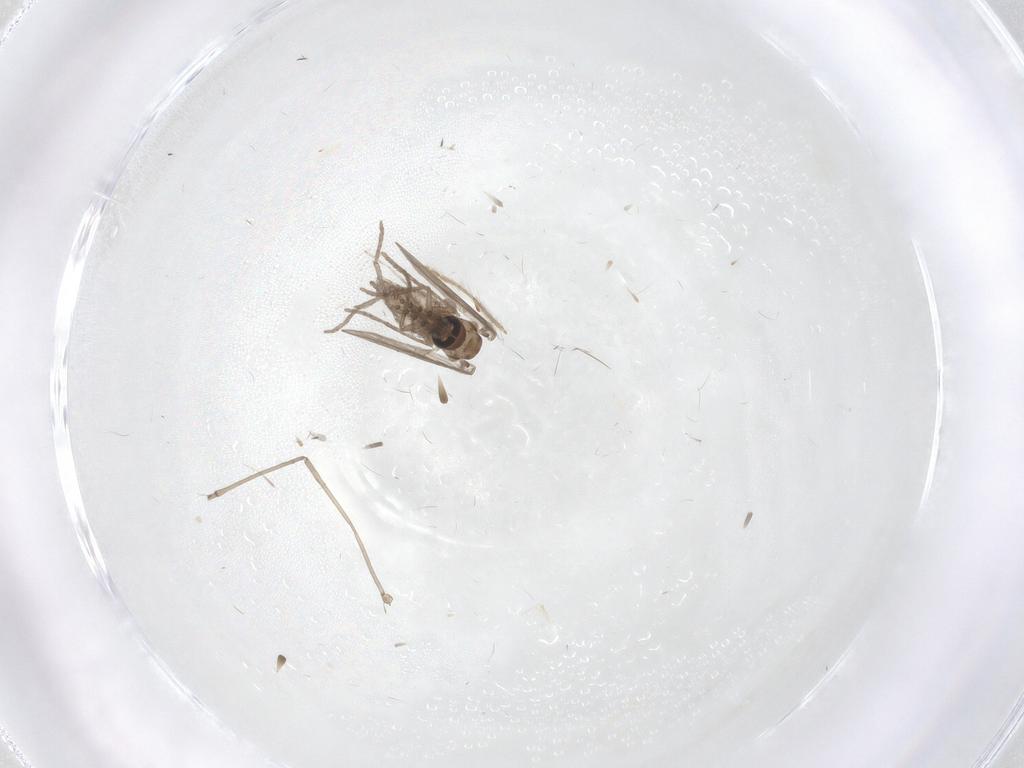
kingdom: Animalia
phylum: Arthropoda
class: Insecta
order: Diptera
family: Psychodidae
